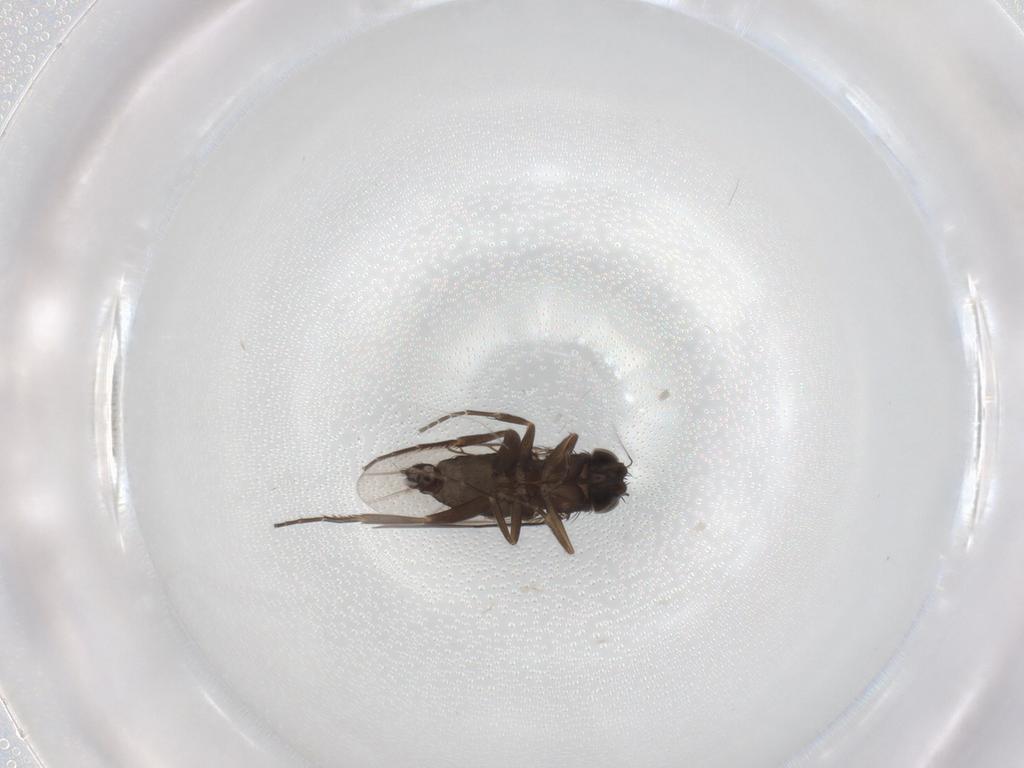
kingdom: Animalia
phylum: Arthropoda
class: Insecta
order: Diptera
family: Phoridae
